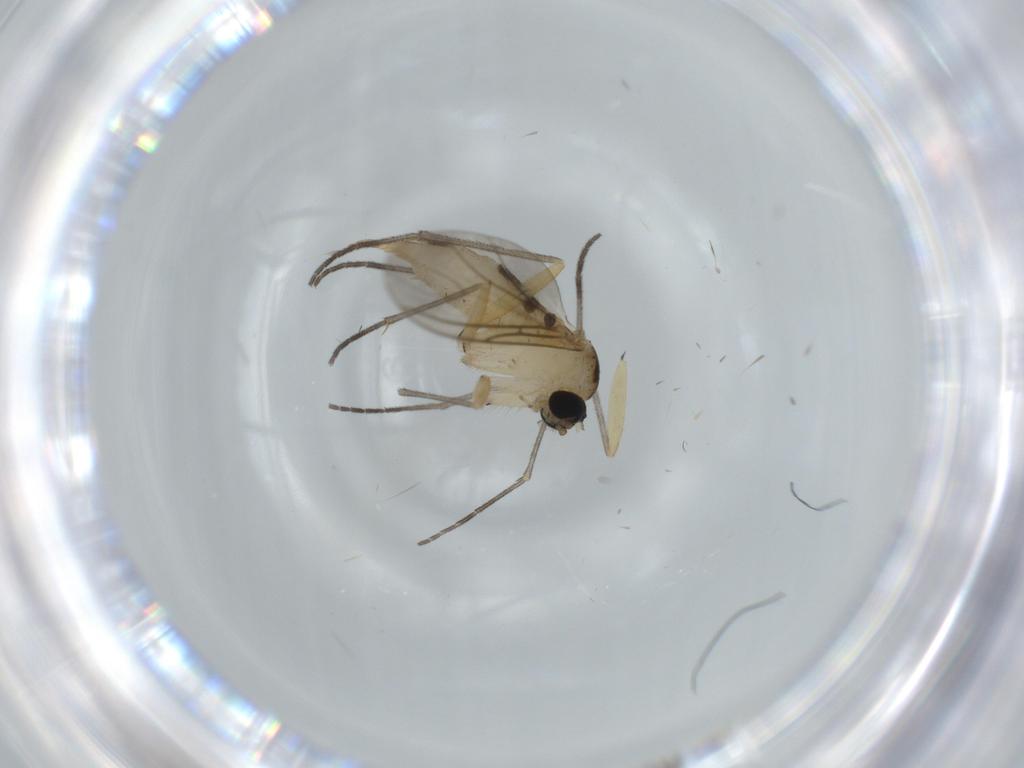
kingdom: Animalia
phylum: Arthropoda
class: Insecta
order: Diptera
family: Sciaridae
